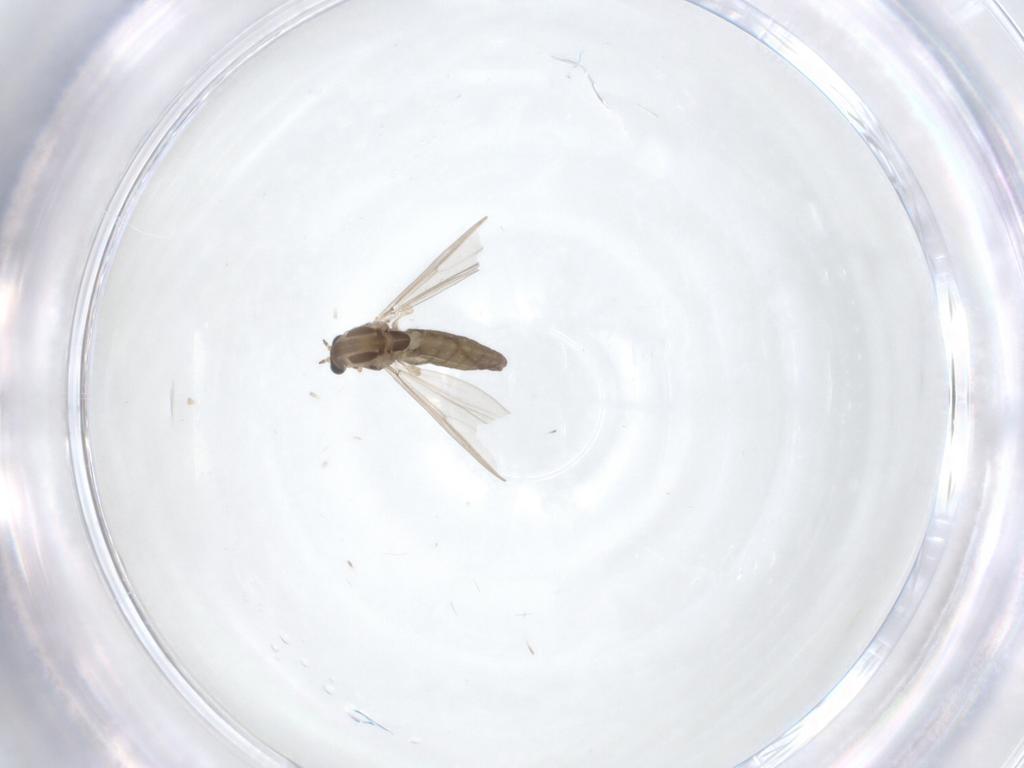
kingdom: Animalia
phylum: Arthropoda
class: Insecta
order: Diptera
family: Chironomidae
